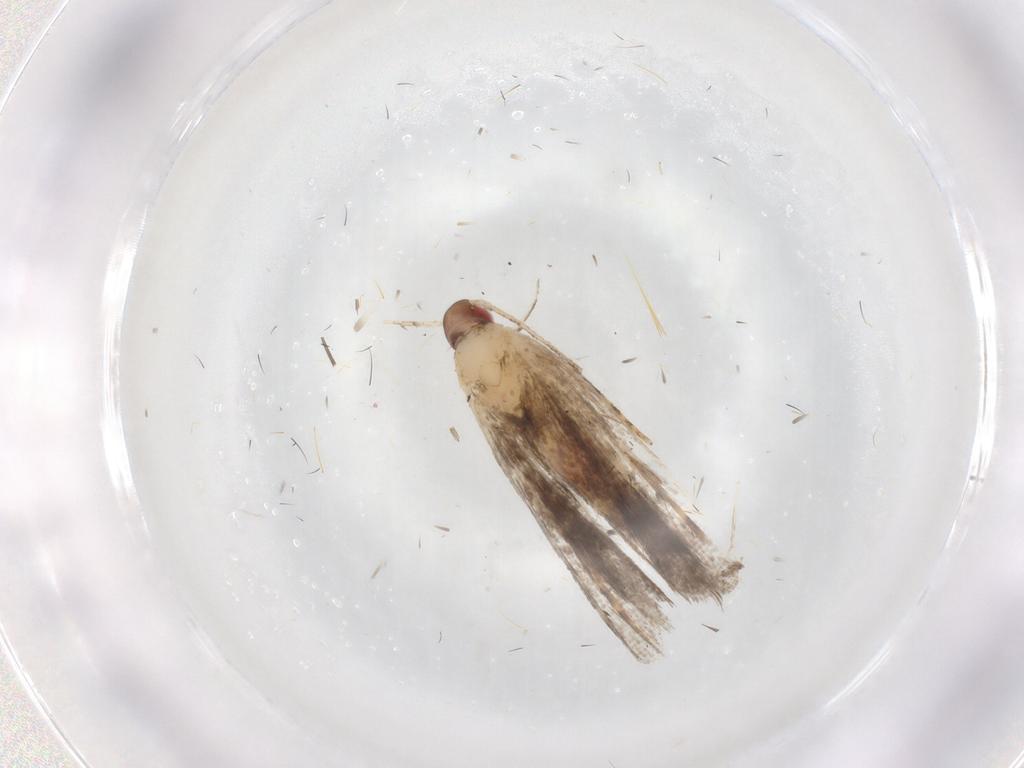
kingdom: Animalia
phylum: Arthropoda
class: Insecta
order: Lepidoptera
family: Gelechiidae
